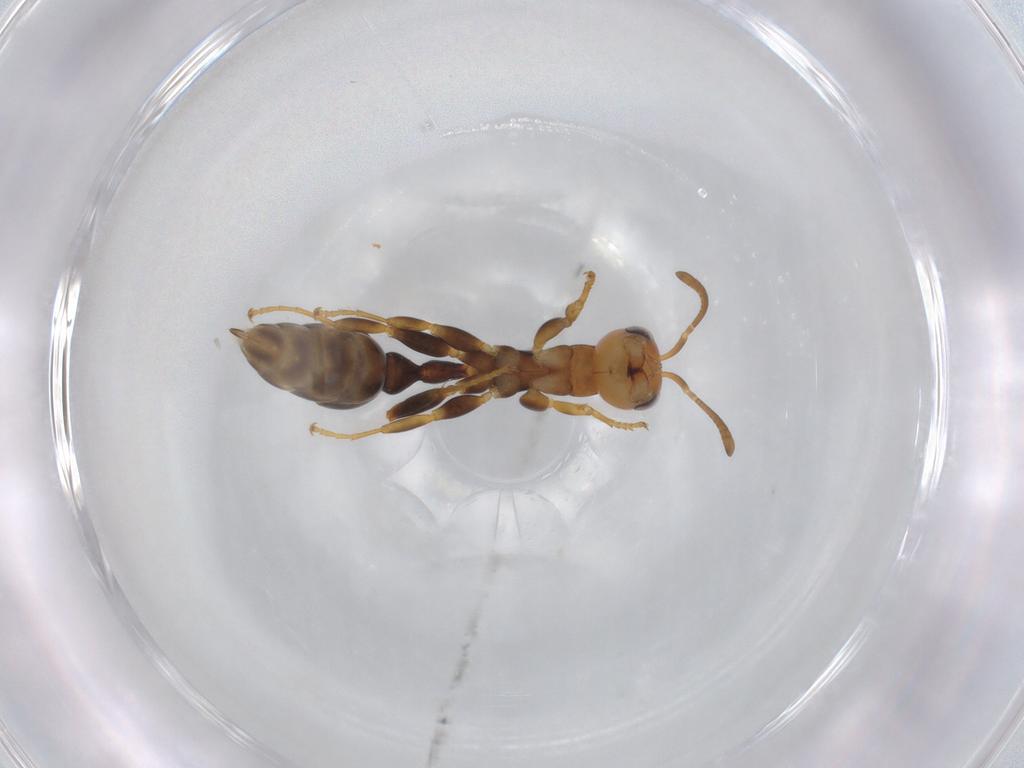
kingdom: Animalia
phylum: Arthropoda
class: Insecta
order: Hymenoptera
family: Formicidae
